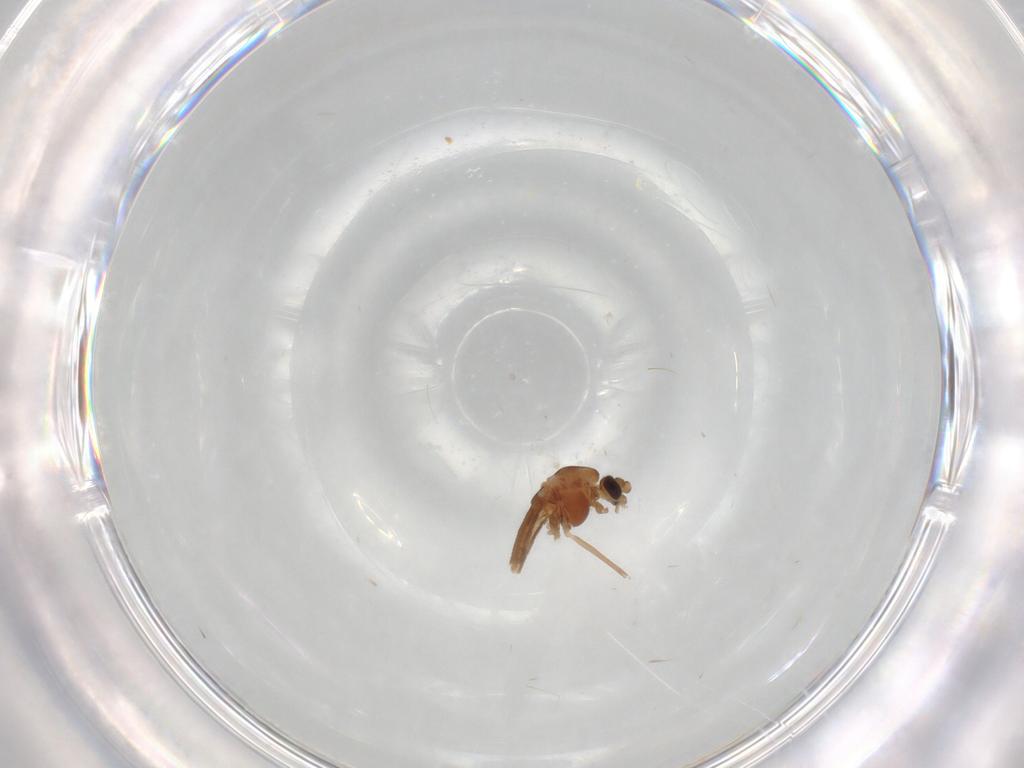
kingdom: Animalia
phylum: Arthropoda
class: Insecta
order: Diptera
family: Chironomidae
